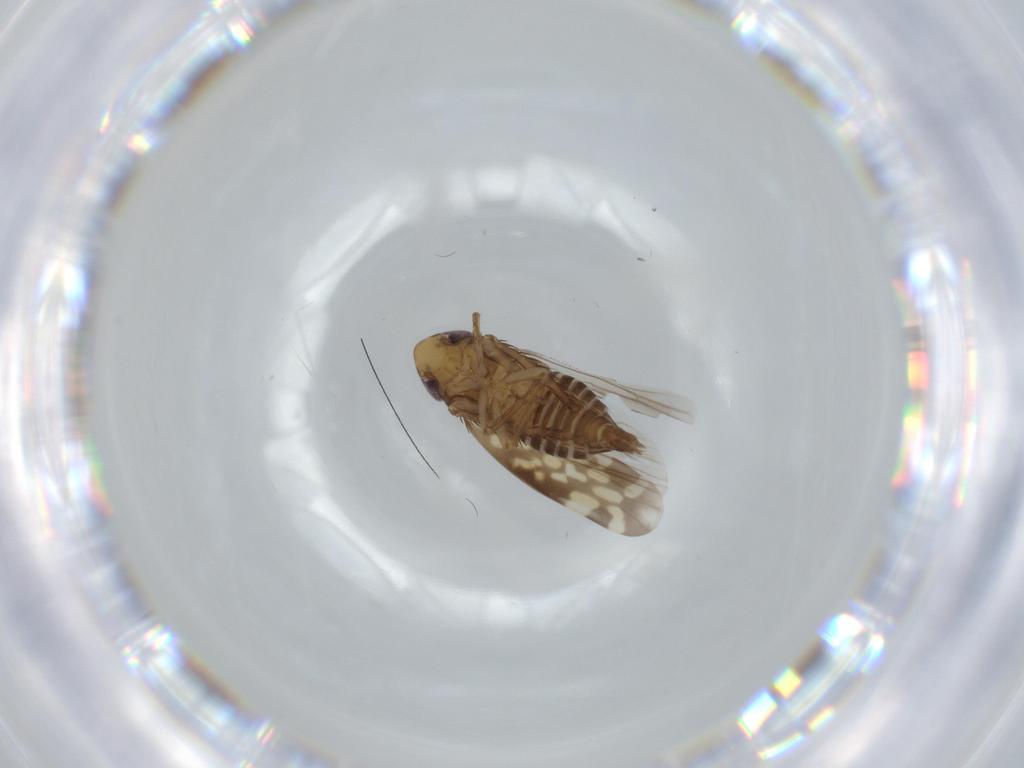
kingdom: Animalia
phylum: Arthropoda
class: Insecta
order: Hemiptera
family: Cicadellidae
